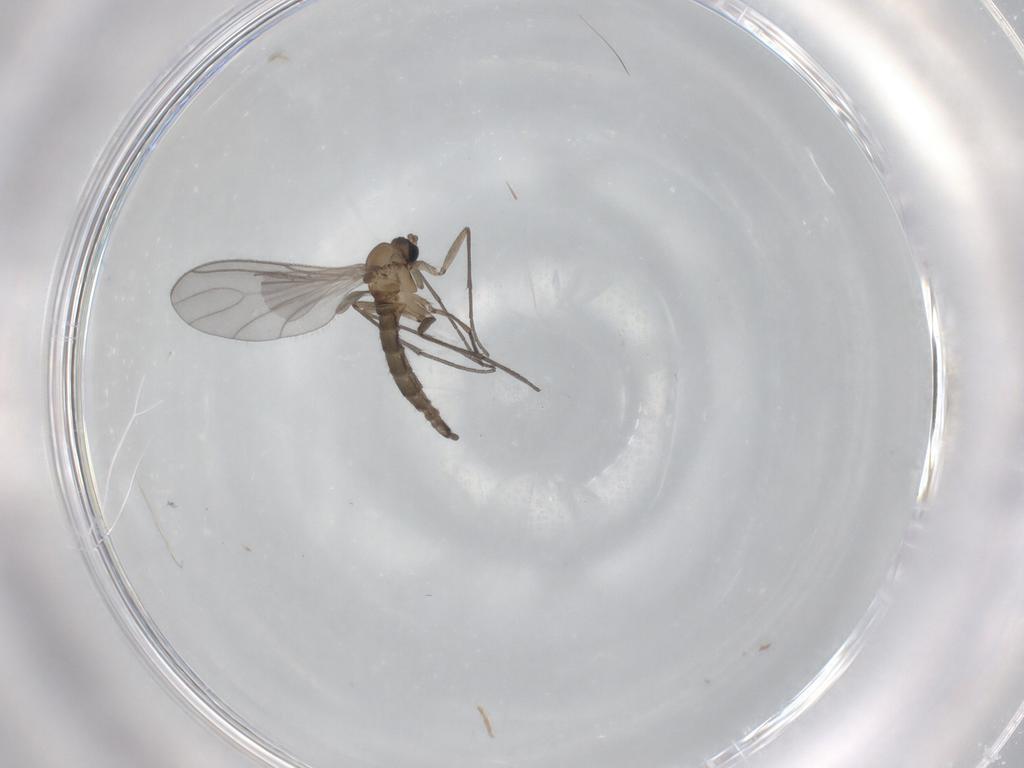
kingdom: Animalia
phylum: Arthropoda
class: Insecta
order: Diptera
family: Sciaridae
